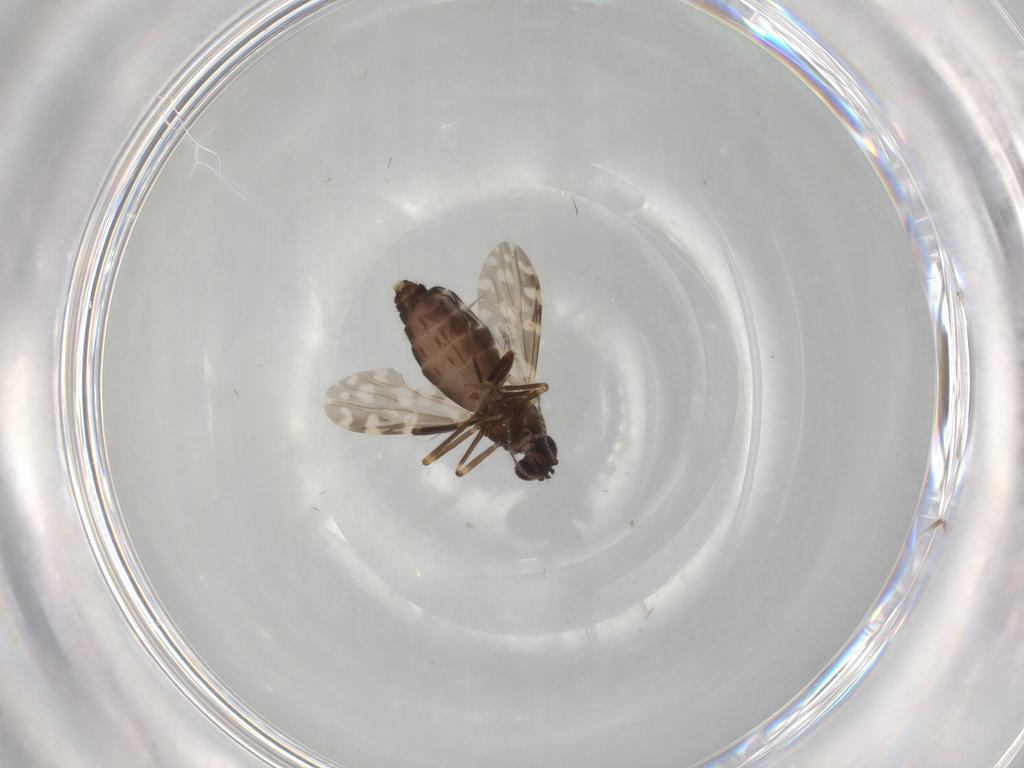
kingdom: Animalia
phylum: Arthropoda
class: Insecta
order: Diptera
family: Ceratopogonidae
